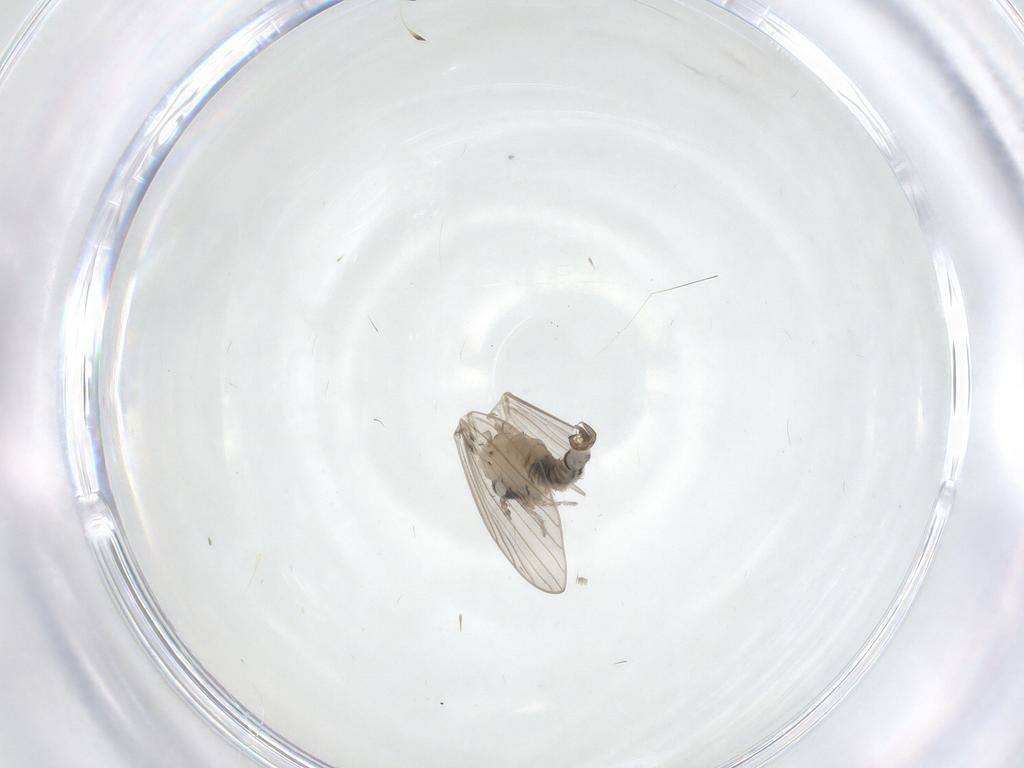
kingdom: Animalia
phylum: Arthropoda
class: Insecta
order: Diptera
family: Psychodidae
